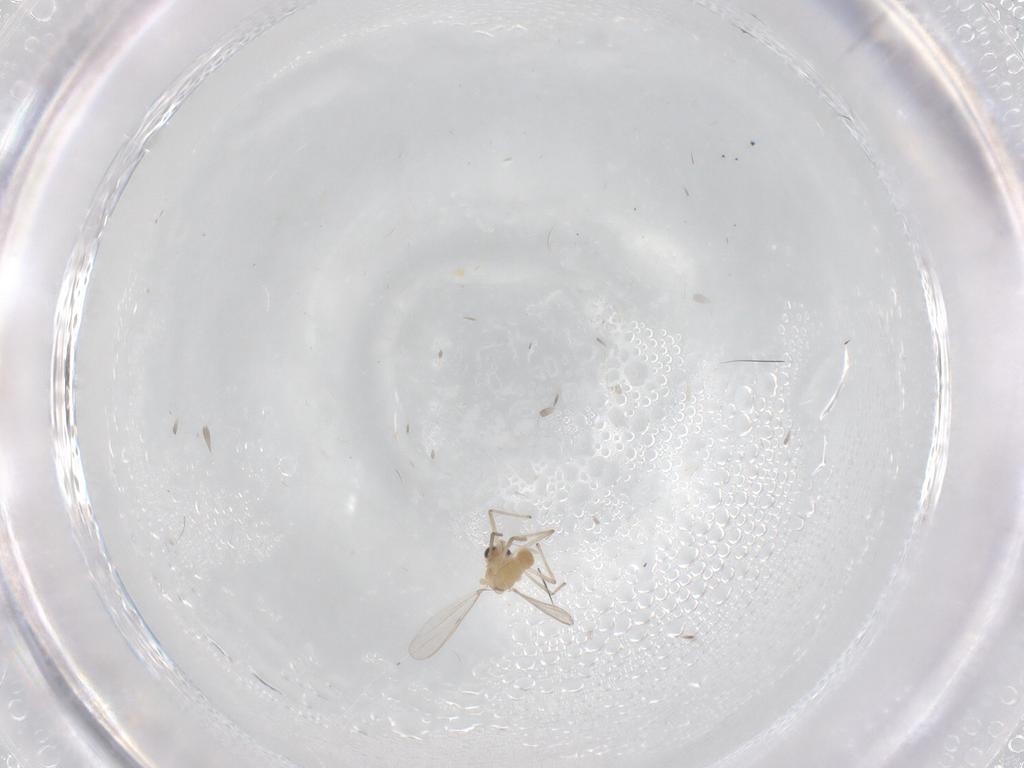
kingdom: Animalia
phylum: Arthropoda
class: Insecta
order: Diptera
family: Chironomidae
